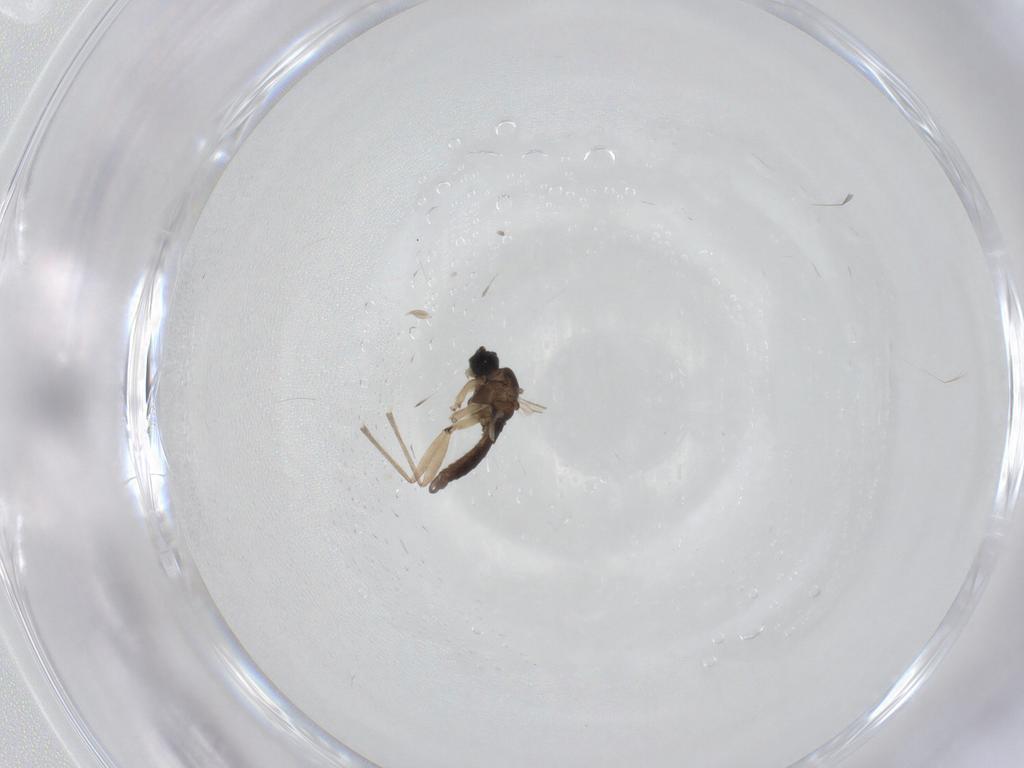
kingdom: Animalia
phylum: Arthropoda
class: Insecta
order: Diptera
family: Sciaridae
